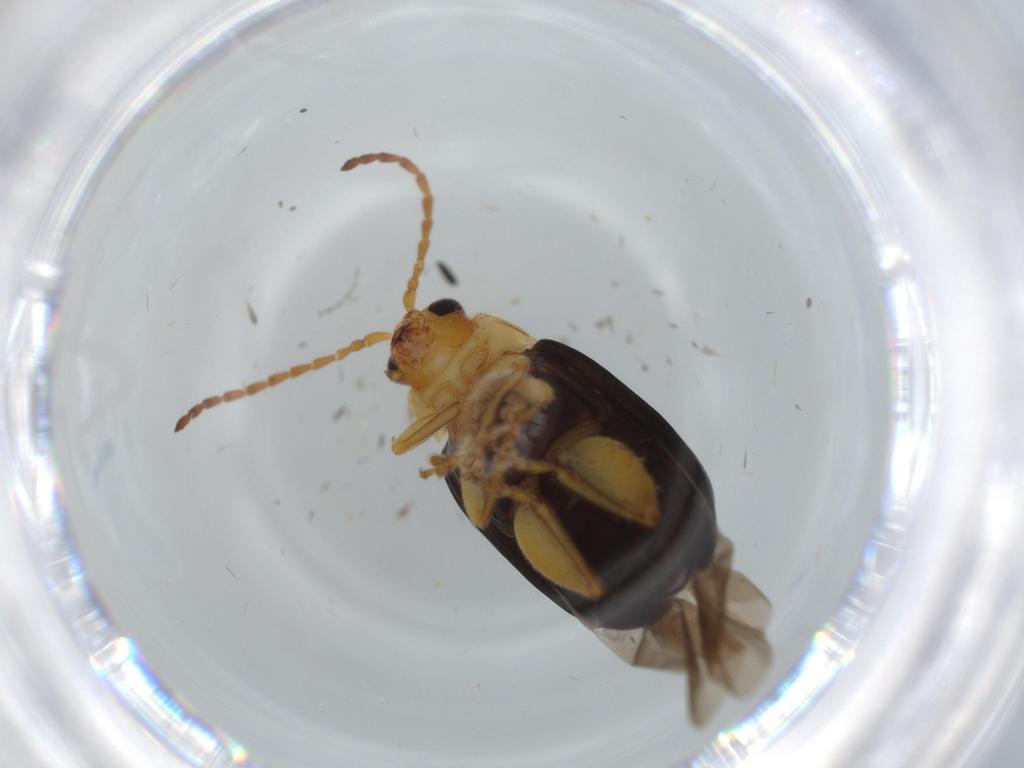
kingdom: Animalia
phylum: Arthropoda
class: Insecta
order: Coleoptera
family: Chrysomelidae
